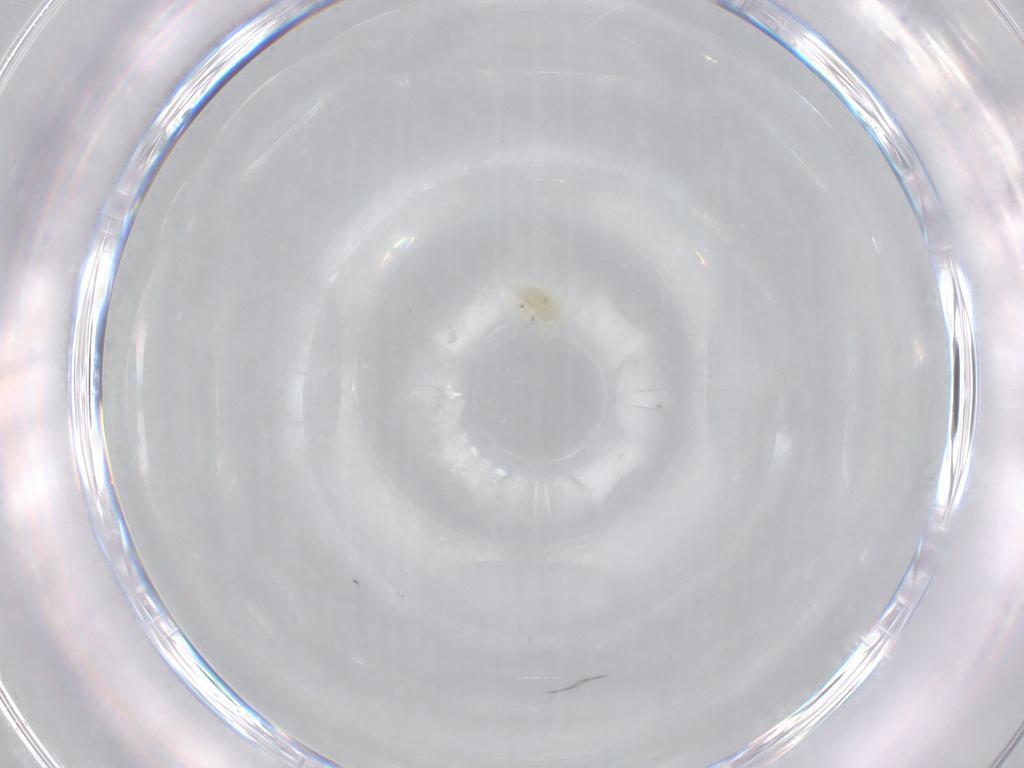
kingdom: Animalia
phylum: Arthropoda
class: Arachnida
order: Trombidiformes
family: Rhagidiidae
